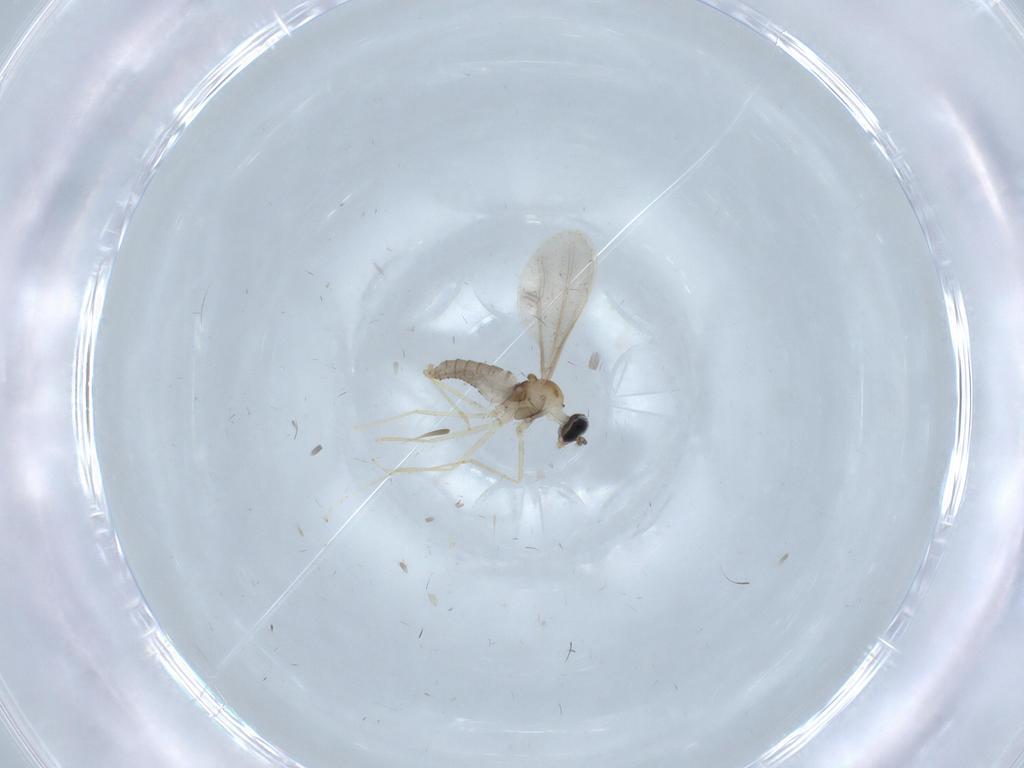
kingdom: Animalia
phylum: Arthropoda
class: Insecta
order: Diptera
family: Cecidomyiidae
